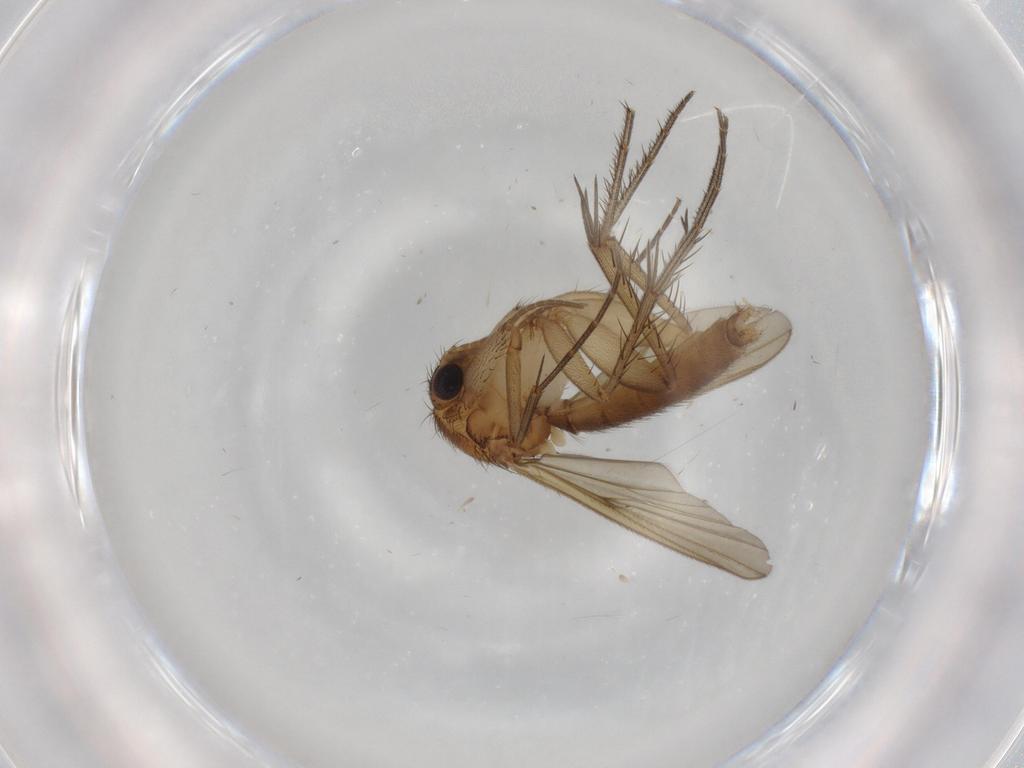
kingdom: Animalia
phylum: Arthropoda
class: Insecta
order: Diptera
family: Mycetophilidae
